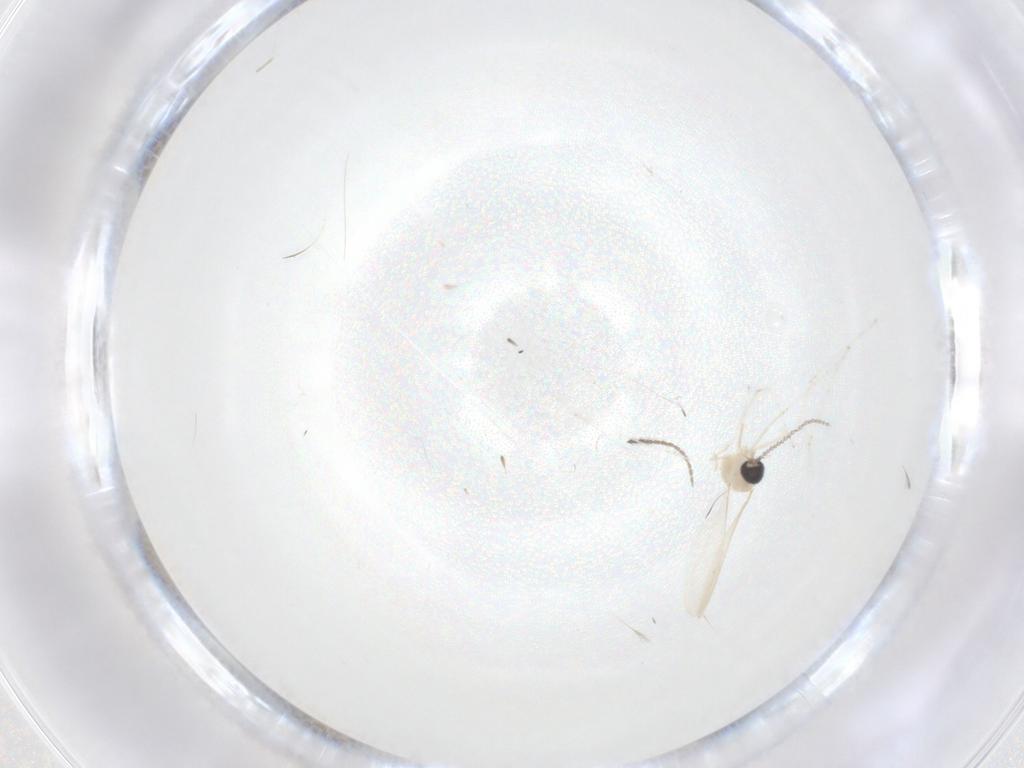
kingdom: Animalia
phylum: Arthropoda
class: Insecta
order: Diptera
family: Cecidomyiidae
